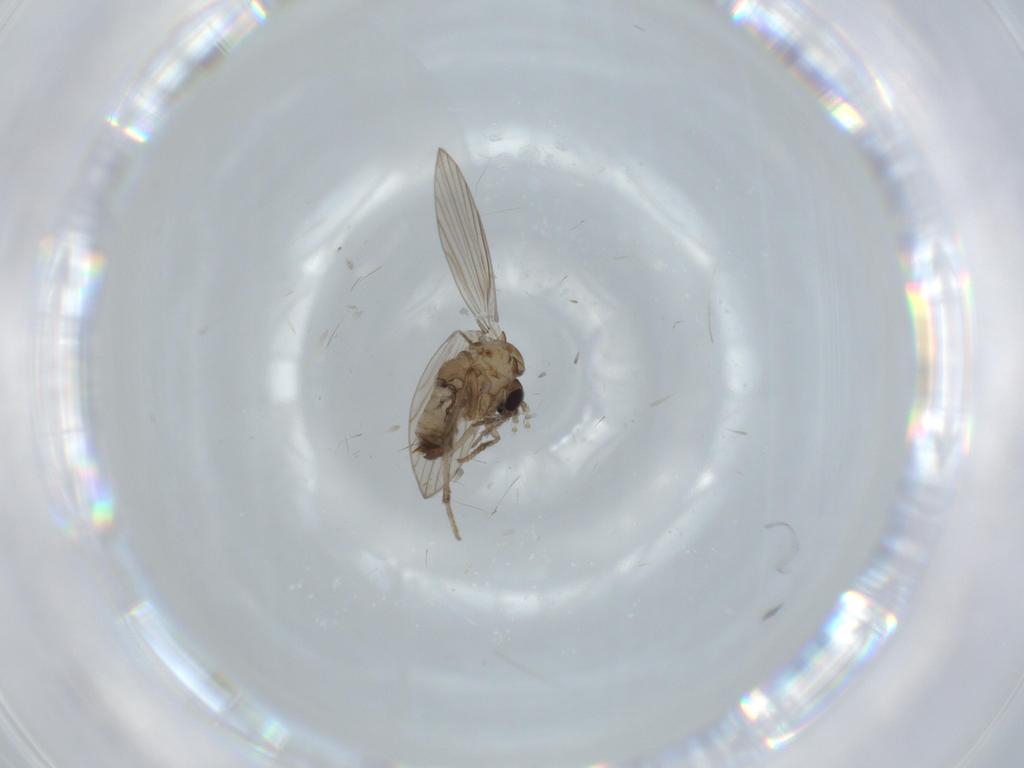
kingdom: Animalia
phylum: Arthropoda
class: Insecta
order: Diptera
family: Psychodidae
